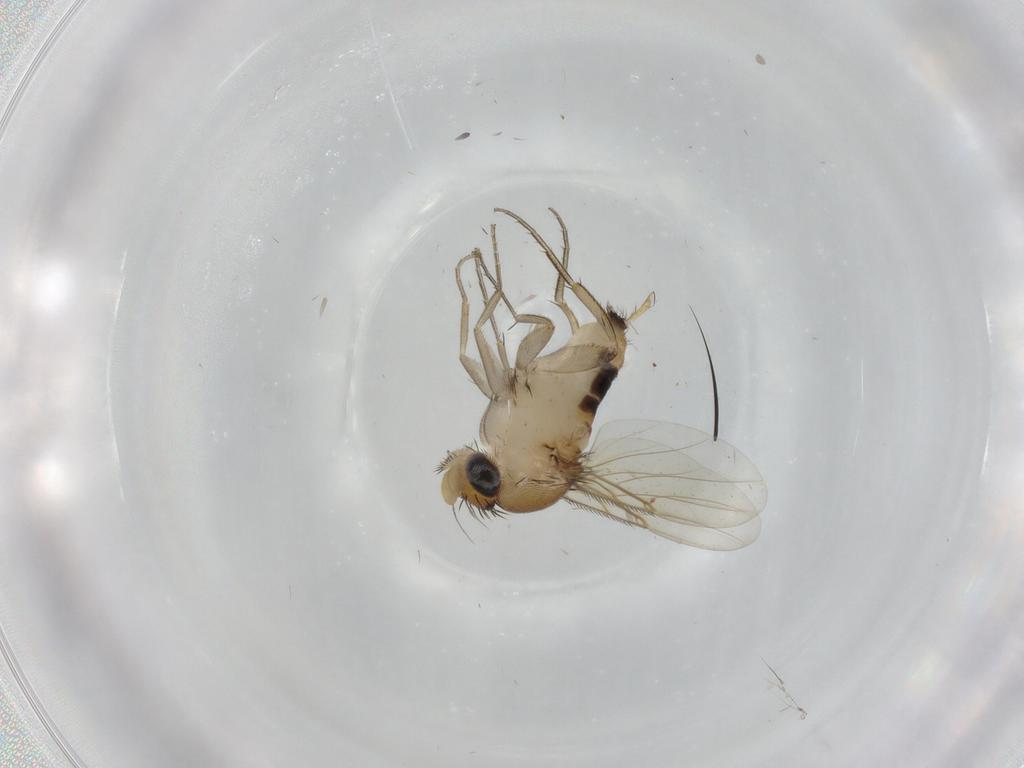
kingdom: Animalia
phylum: Arthropoda
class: Insecta
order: Diptera
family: Phoridae
